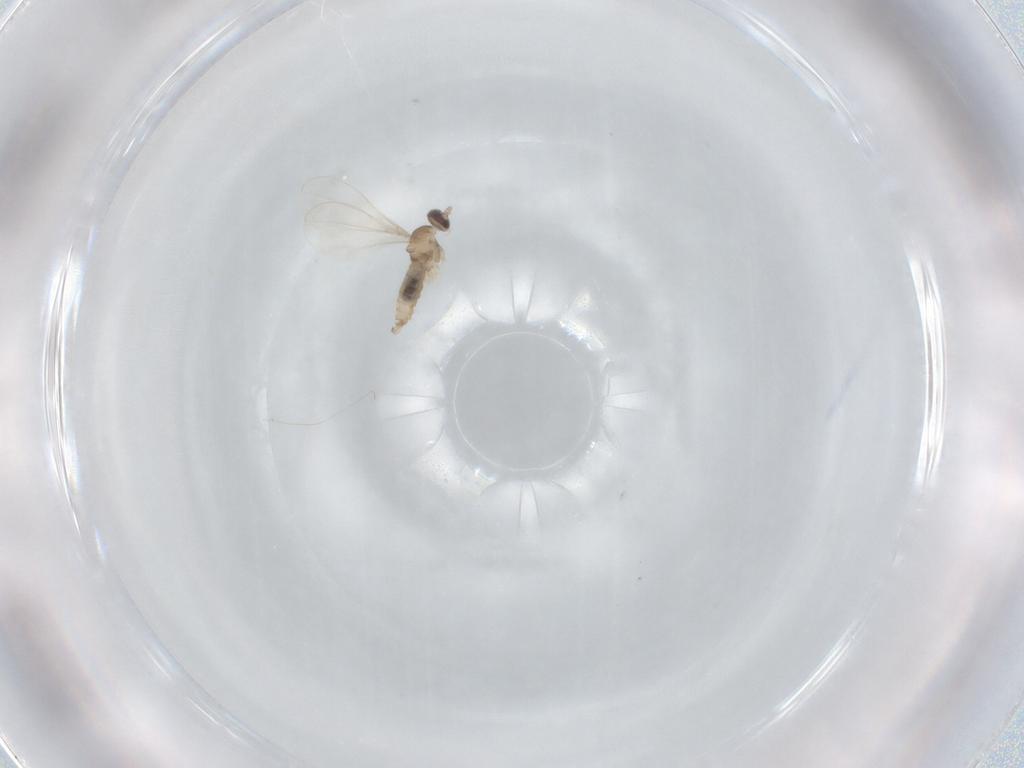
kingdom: Animalia
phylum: Arthropoda
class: Insecta
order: Diptera
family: Cecidomyiidae
